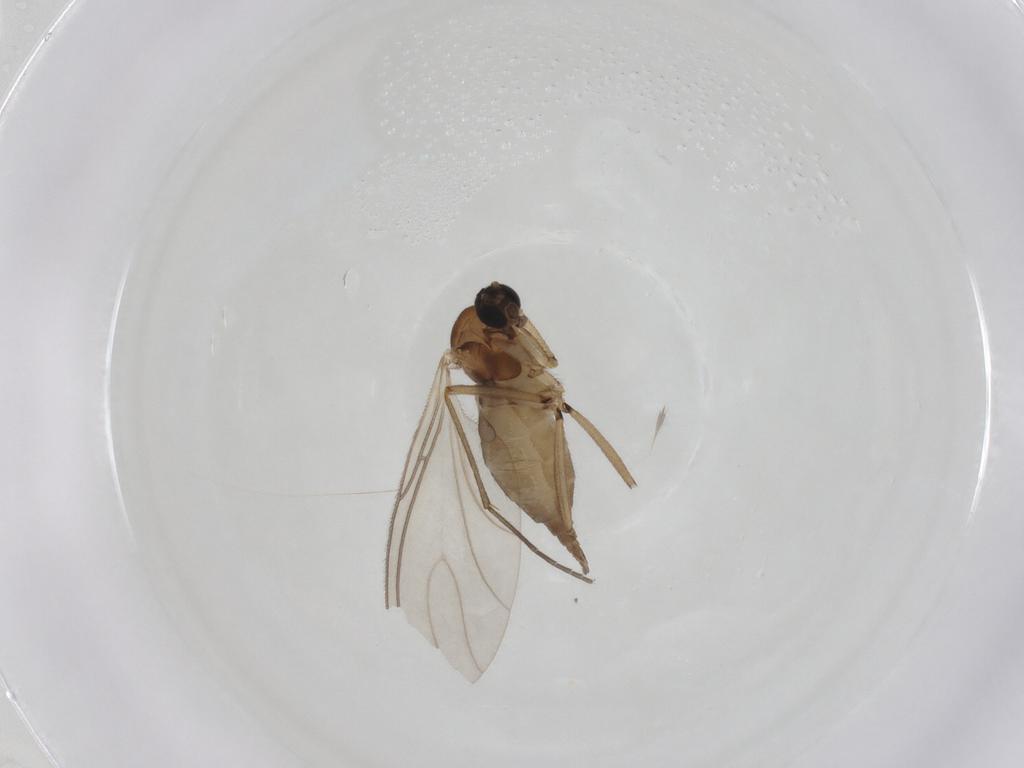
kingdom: Animalia
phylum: Arthropoda
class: Insecta
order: Diptera
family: Sciaridae
